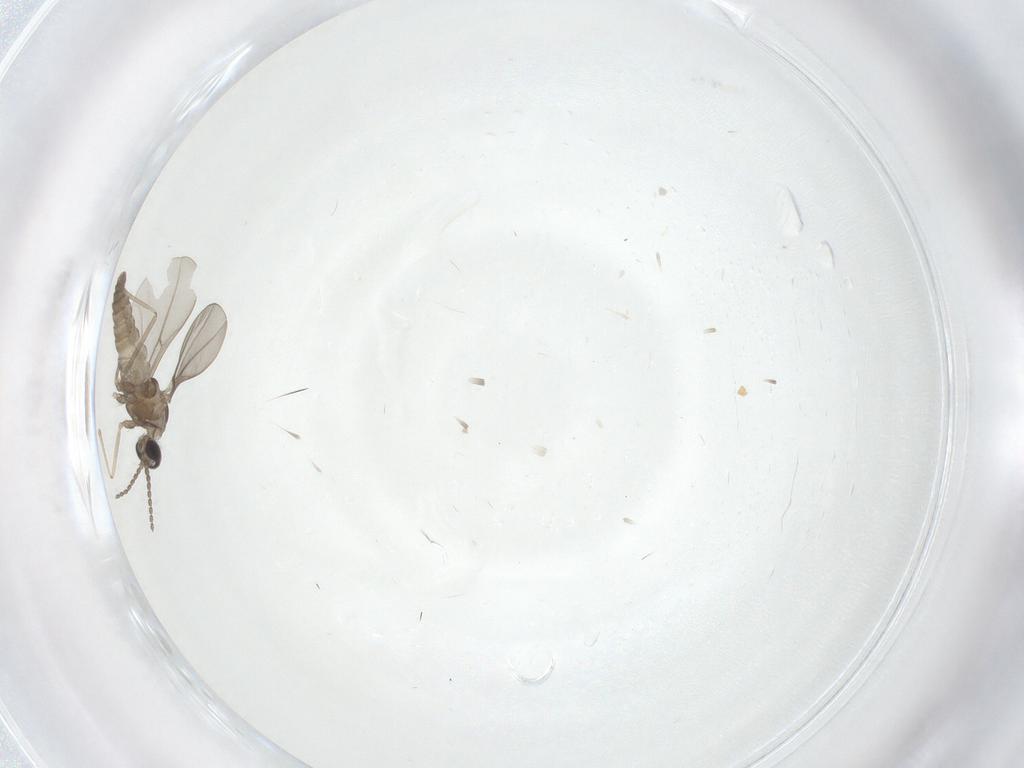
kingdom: Animalia
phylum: Arthropoda
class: Insecta
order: Diptera
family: Cecidomyiidae
